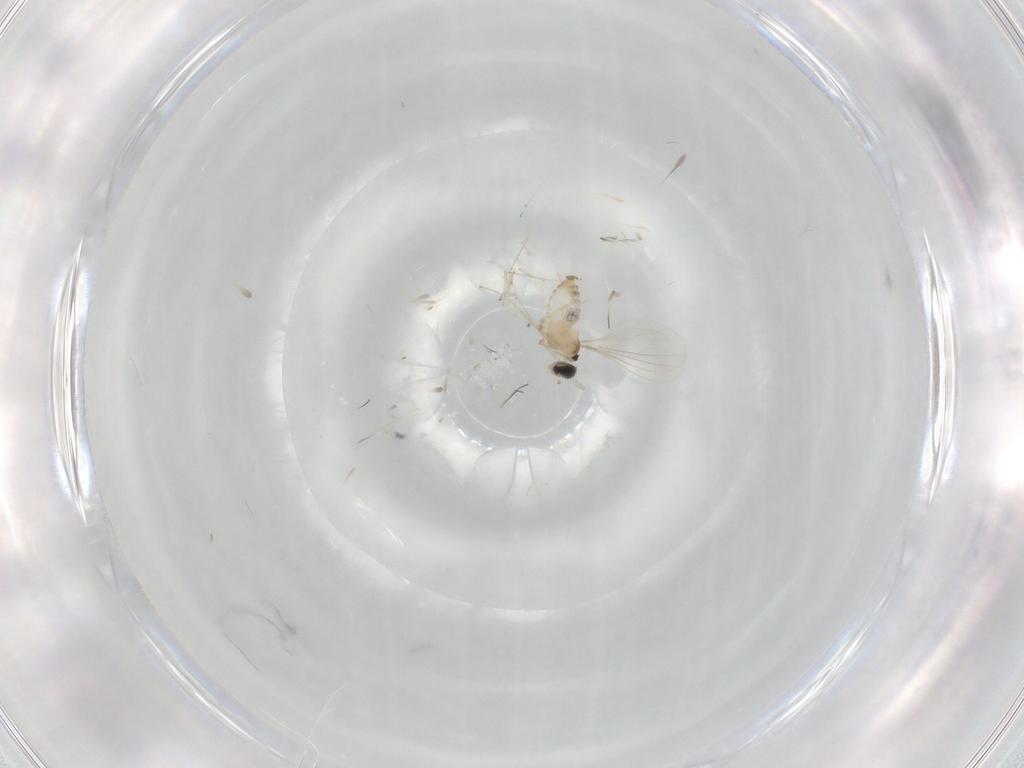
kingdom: Animalia
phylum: Arthropoda
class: Insecta
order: Diptera
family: Cecidomyiidae
